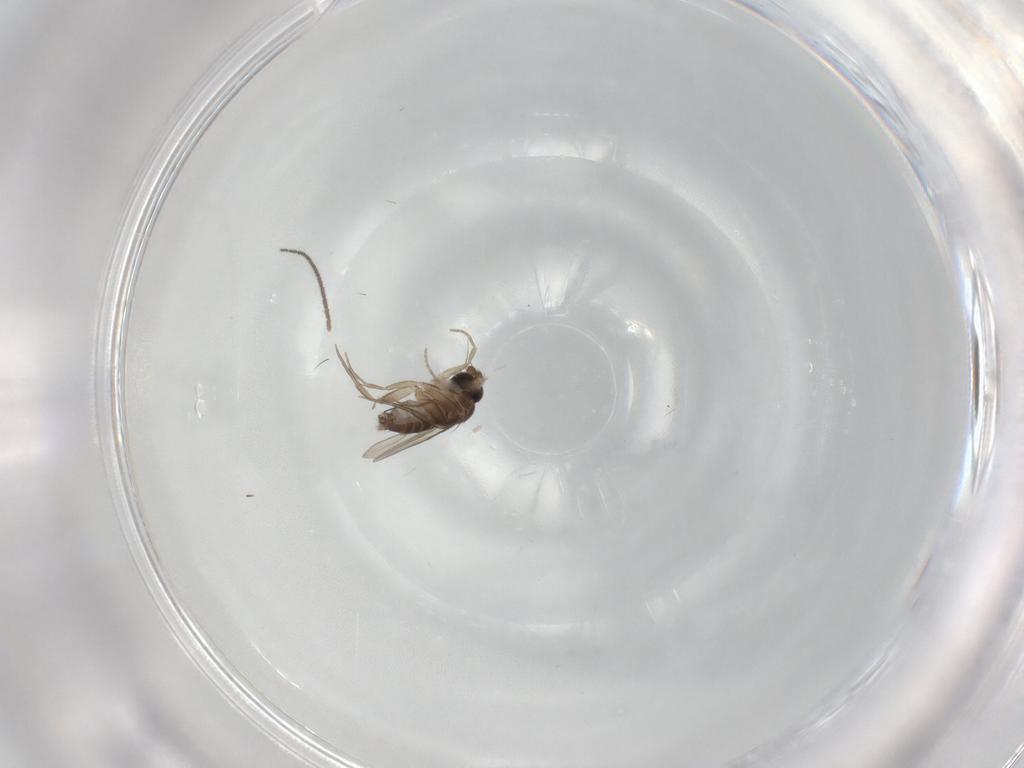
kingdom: Animalia
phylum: Arthropoda
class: Insecta
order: Diptera
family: Sciaridae
